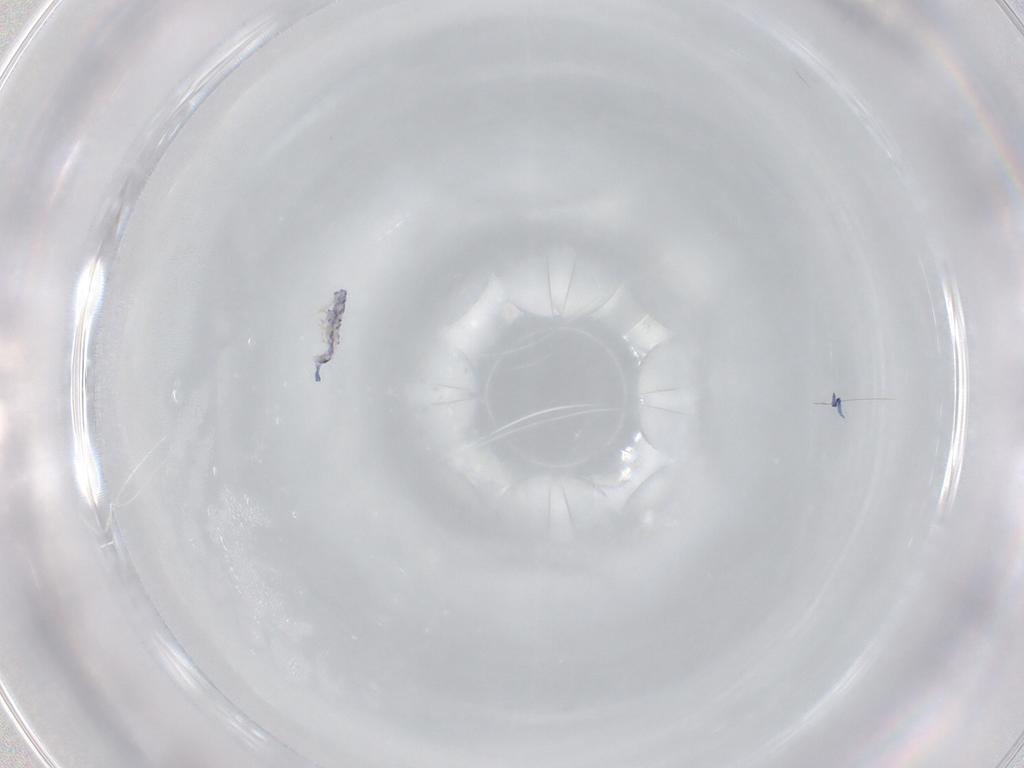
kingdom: Animalia
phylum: Arthropoda
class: Collembola
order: Entomobryomorpha
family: Entomobryidae
